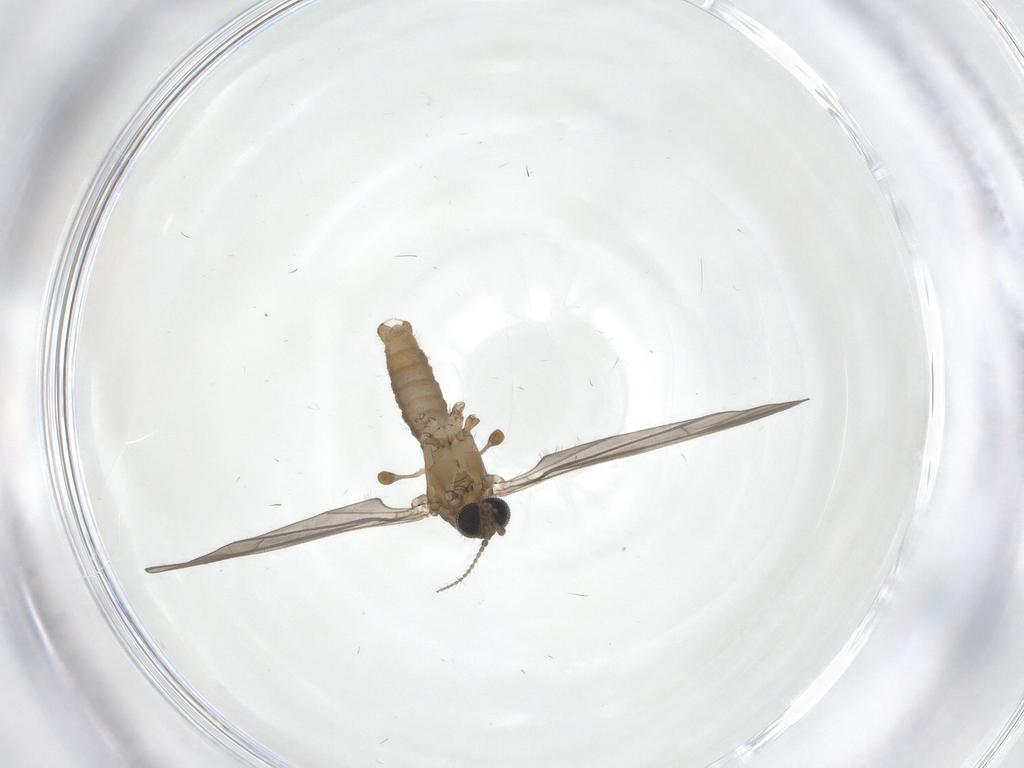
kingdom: Animalia
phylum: Arthropoda
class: Insecta
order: Diptera
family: Limoniidae
